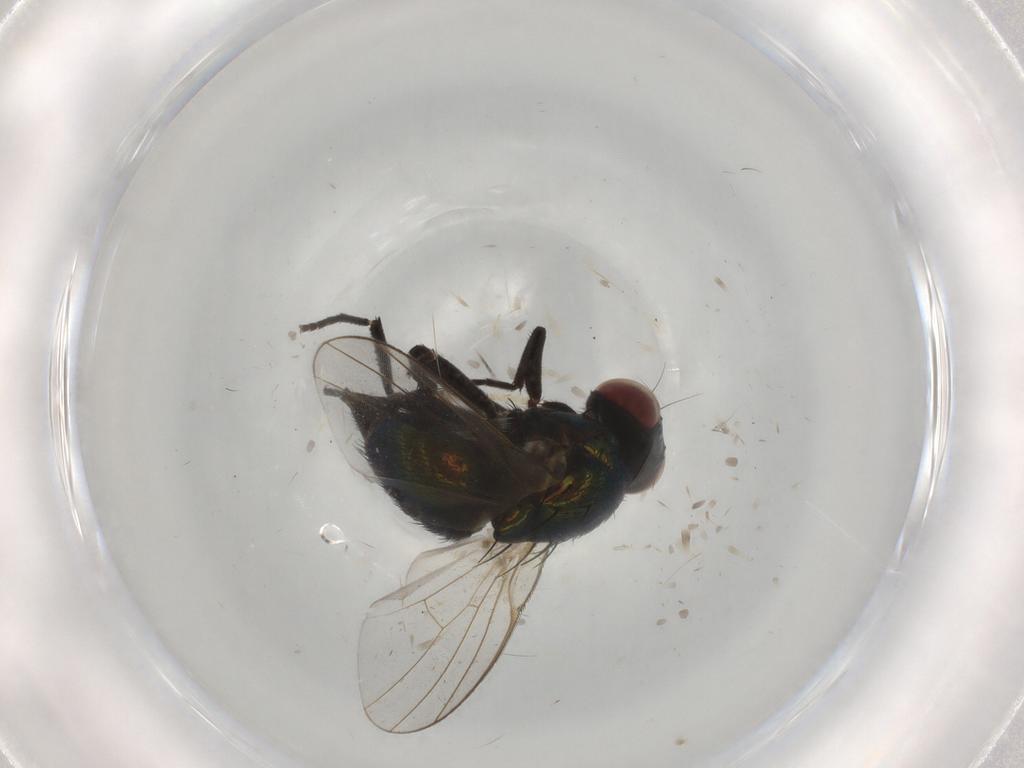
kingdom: Animalia
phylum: Arthropoda
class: Insecta
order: Diptera
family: Agromyzidae
